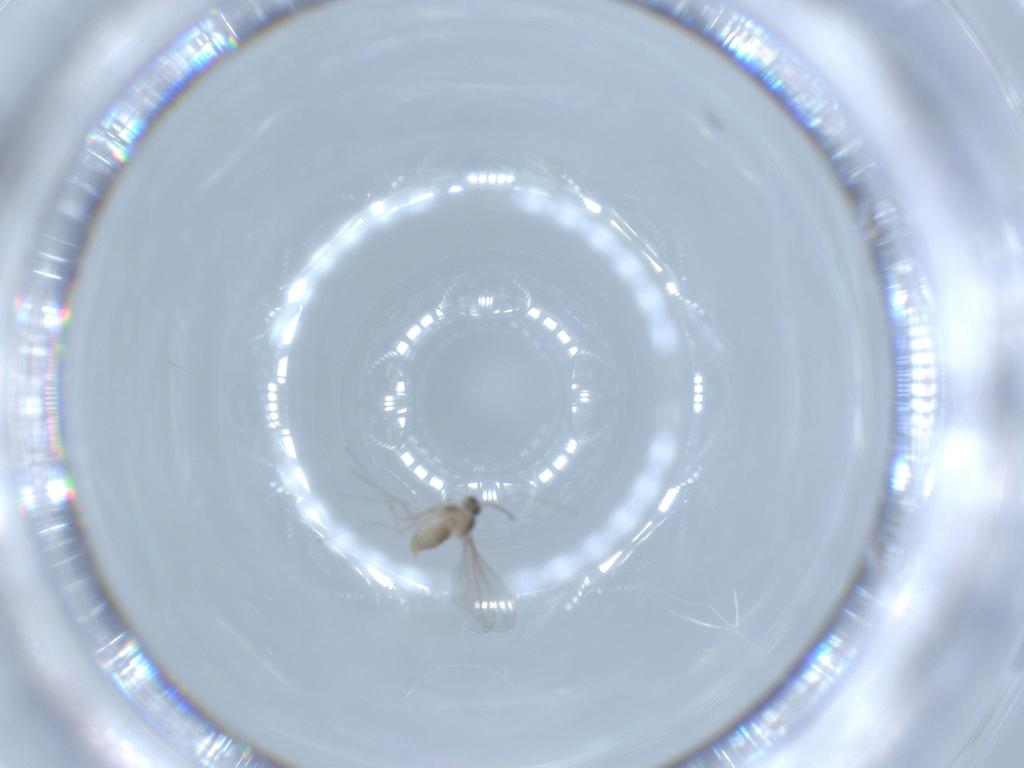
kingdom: Animalia
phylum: Arthropoda
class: Insecta
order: Diptera
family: Cecidomyiidae
